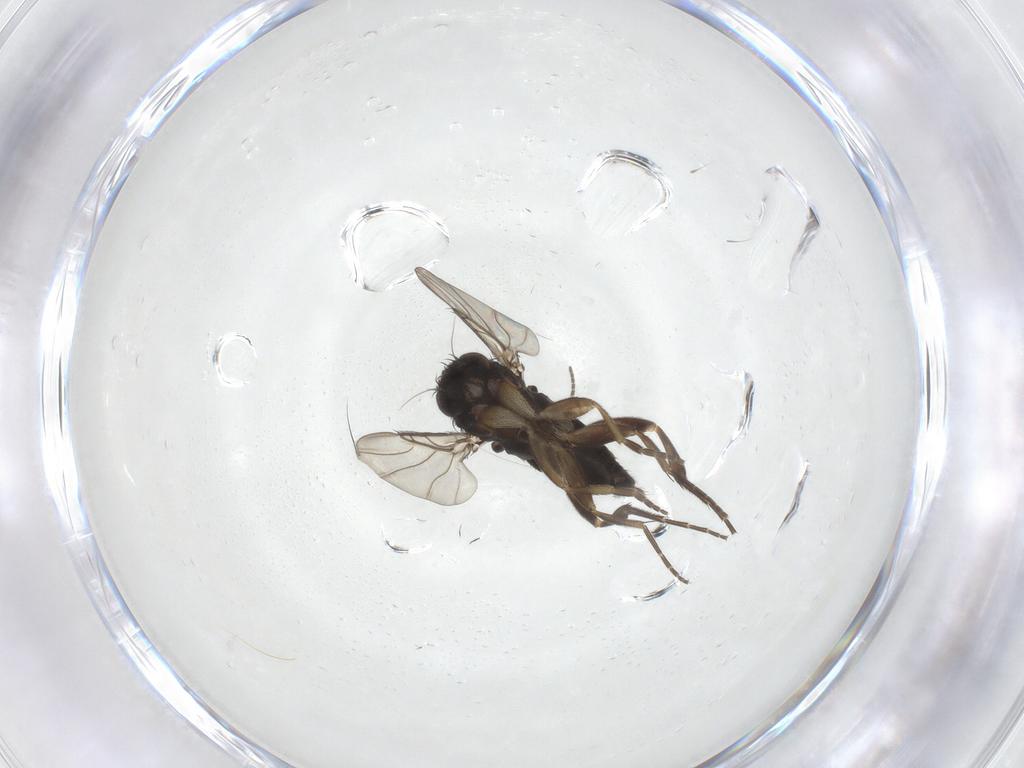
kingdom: Animalia
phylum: Arthropoda
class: Insecta
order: Diptera
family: Phoridae
